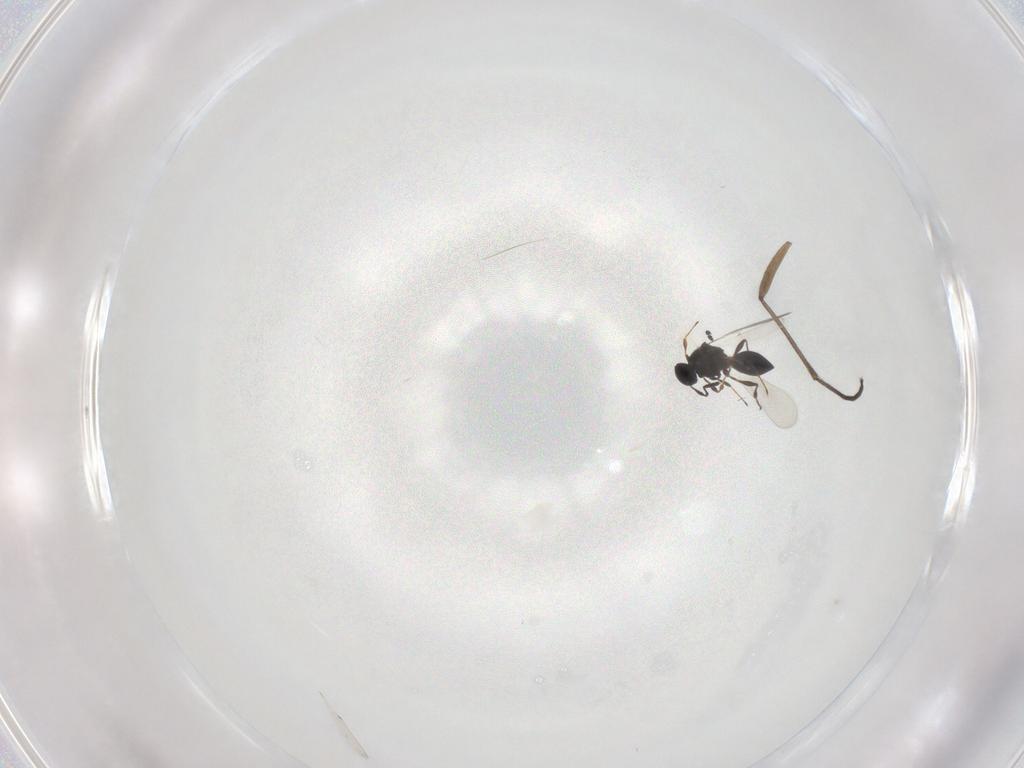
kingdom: Animalia
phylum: Arthropoda
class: Insecta
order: Hymenoptera
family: Platygastridae
